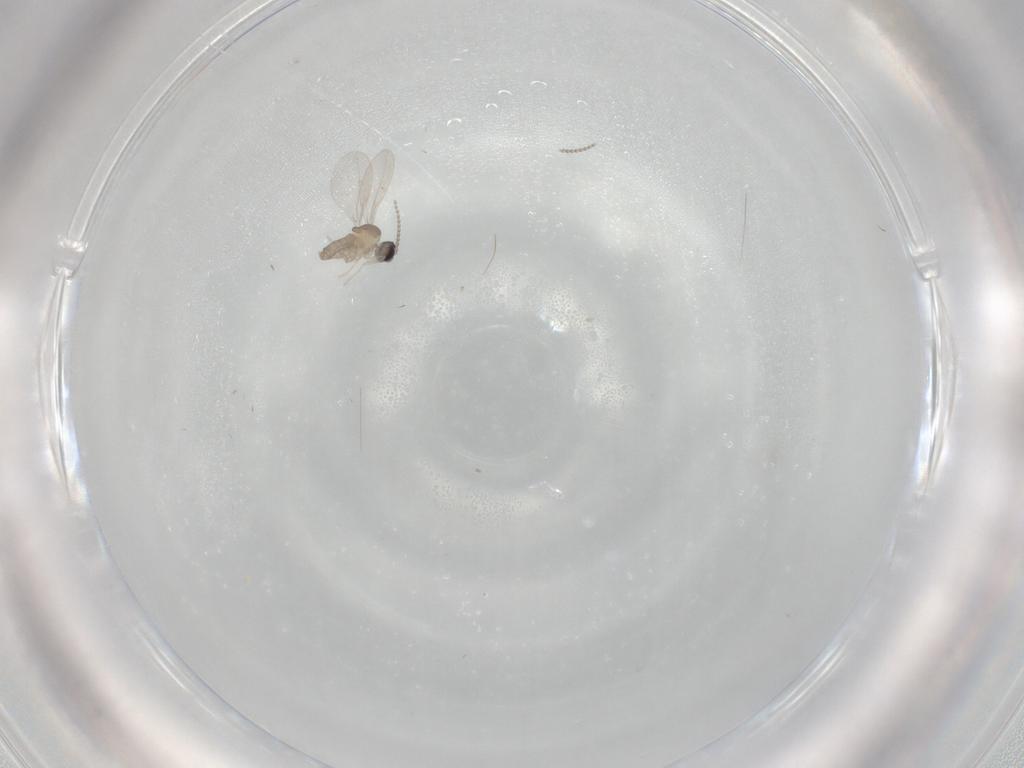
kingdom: Animalia
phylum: Arthropoda
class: Insecta
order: Diptera
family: Cecidomyiidae
